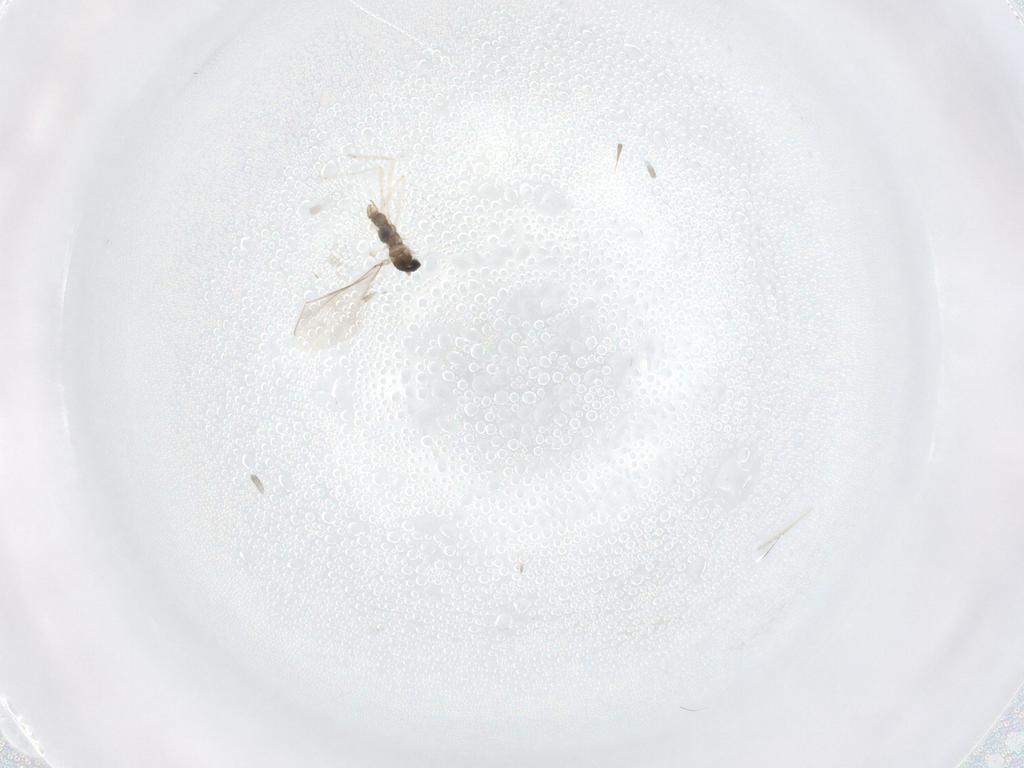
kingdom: Animalia
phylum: Arthropoda
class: Insecta
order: Diptera
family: Cecidomyiidae
